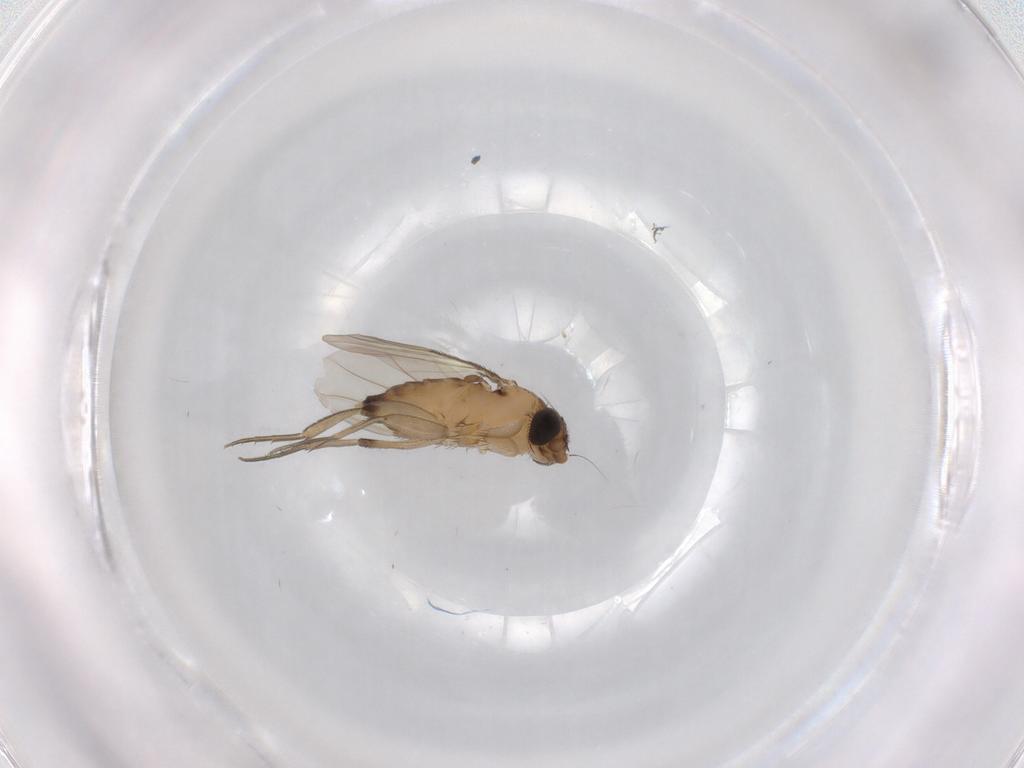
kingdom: Animalia
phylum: Arthropoda
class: Insecta
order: Diptera
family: Phoridae
